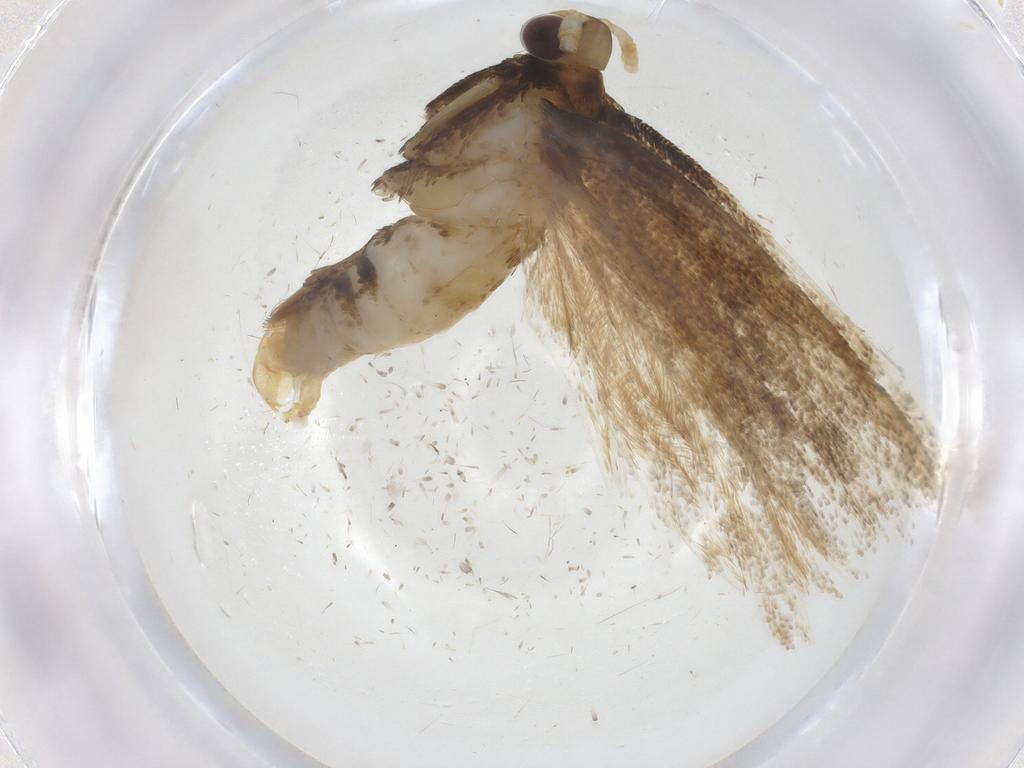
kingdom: Animalia
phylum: Arthropoda
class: Insecta
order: Lepidoptera
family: Lecithoceridae
